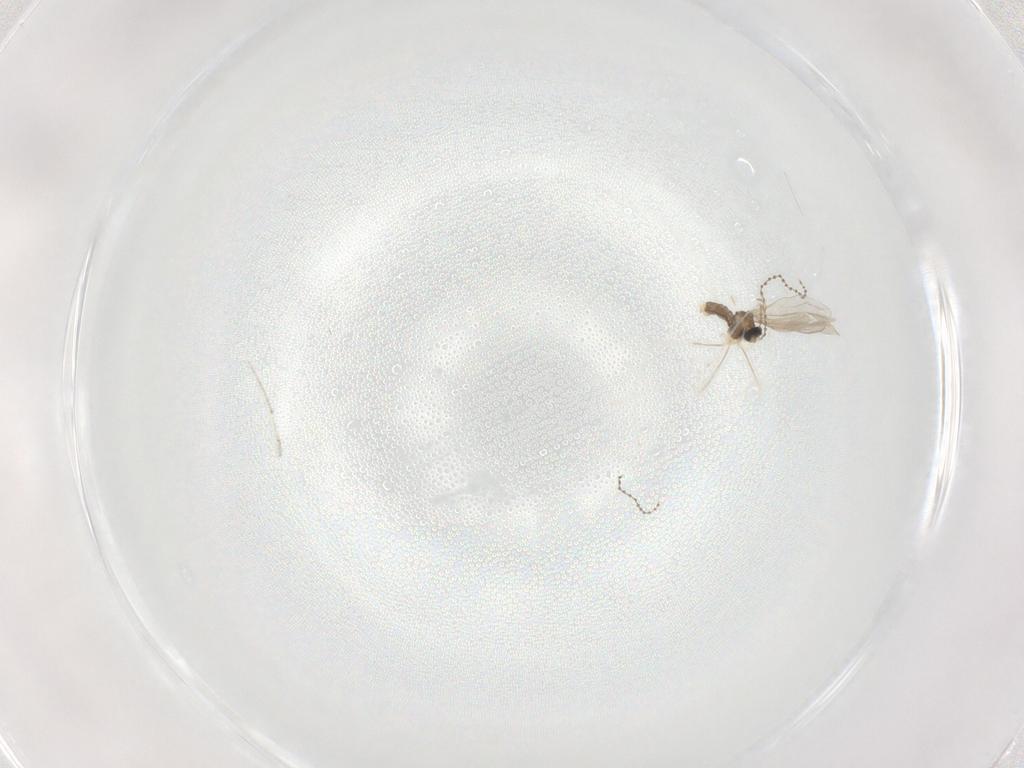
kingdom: Animalia
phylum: Arthropoda
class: Insecta
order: Diptera
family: Cecidomyiidae
